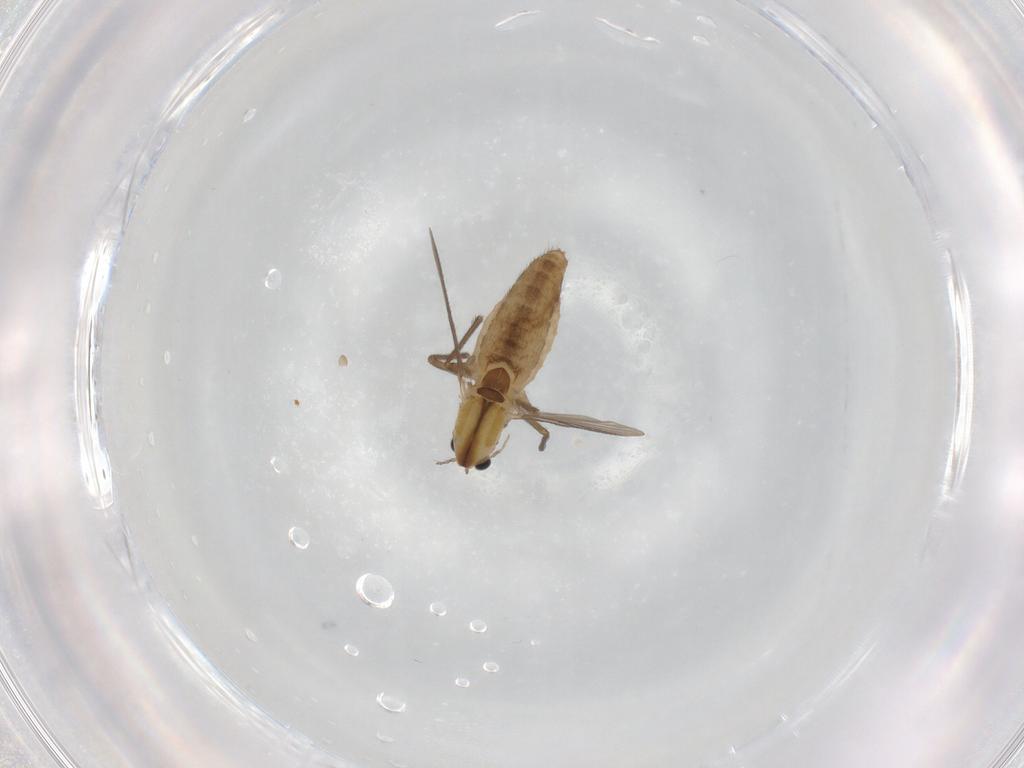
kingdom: Animalia
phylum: Arthropoda
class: Insecta
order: Diptera
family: Chironomidae
